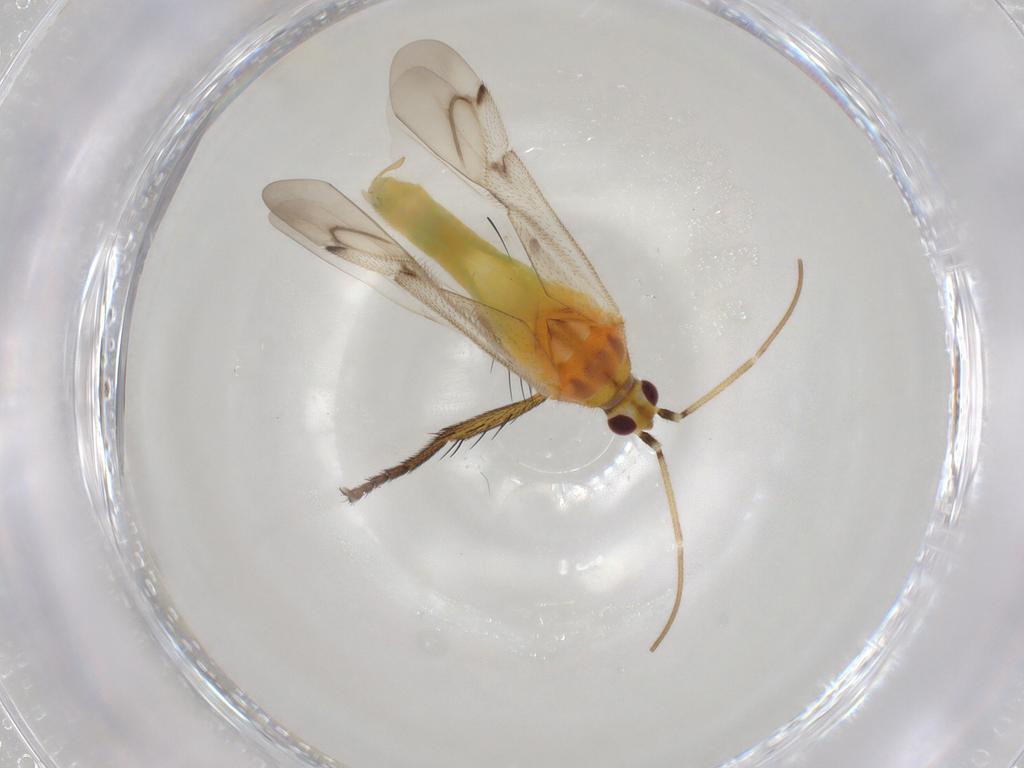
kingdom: Animalia
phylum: Arthropoda
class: Insecta
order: Hemiptera
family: Miridae
